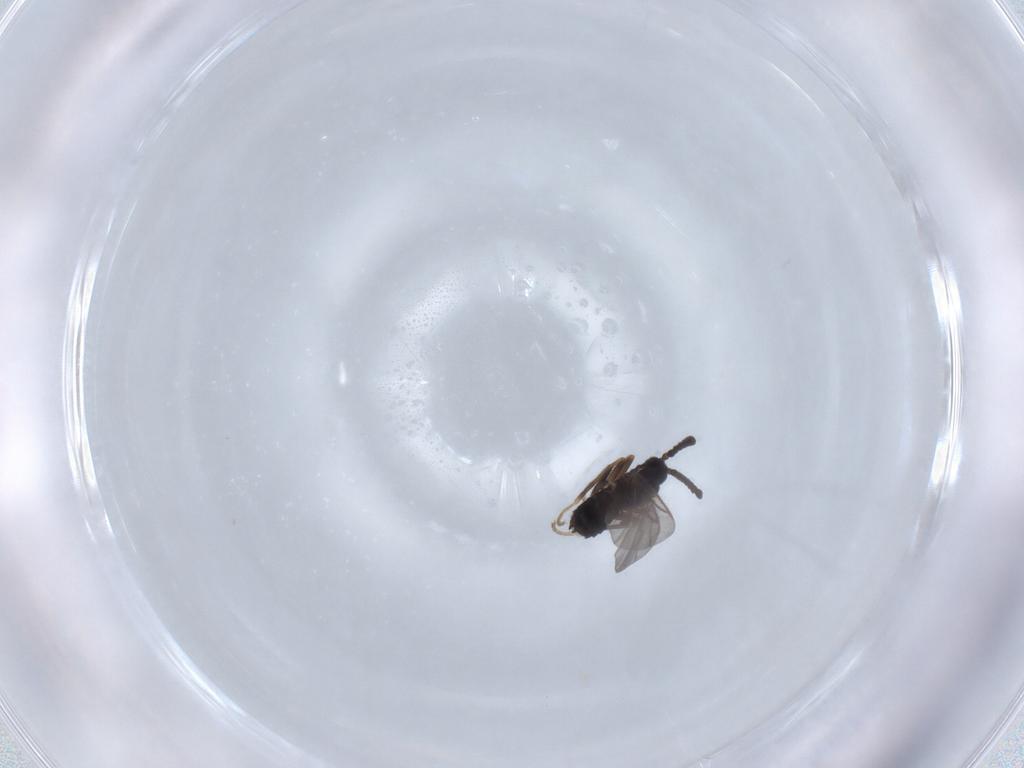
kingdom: Animalia
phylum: Arthropoda
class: Insecta
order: Diptera
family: Scatopsidae
